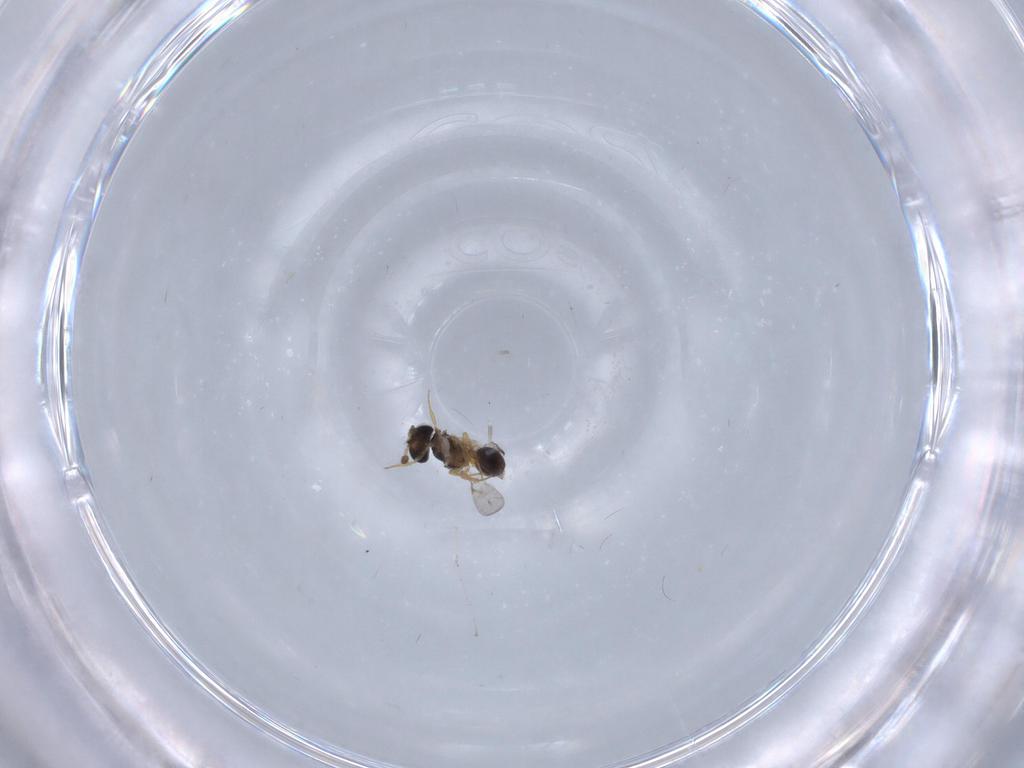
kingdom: Animalia
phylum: Arthropoda
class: Insecta
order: Hymenoptera
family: Scelionidae
